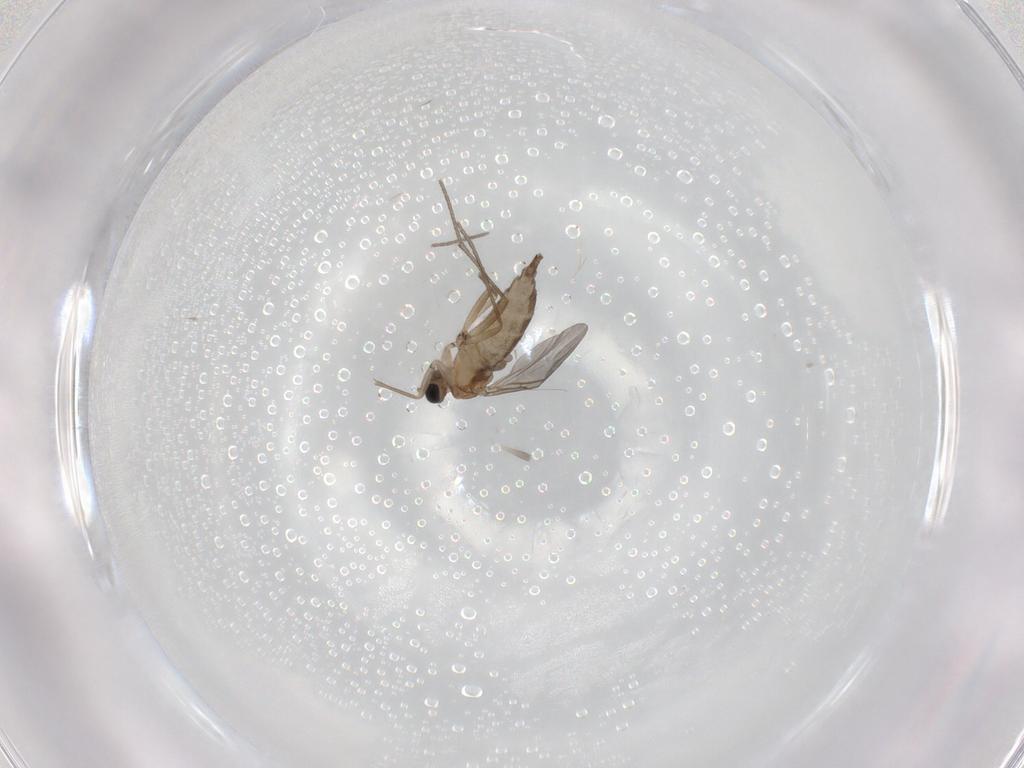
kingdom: Animalia
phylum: Arthropoda
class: Insecta
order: Diptera
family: Sciaridae
